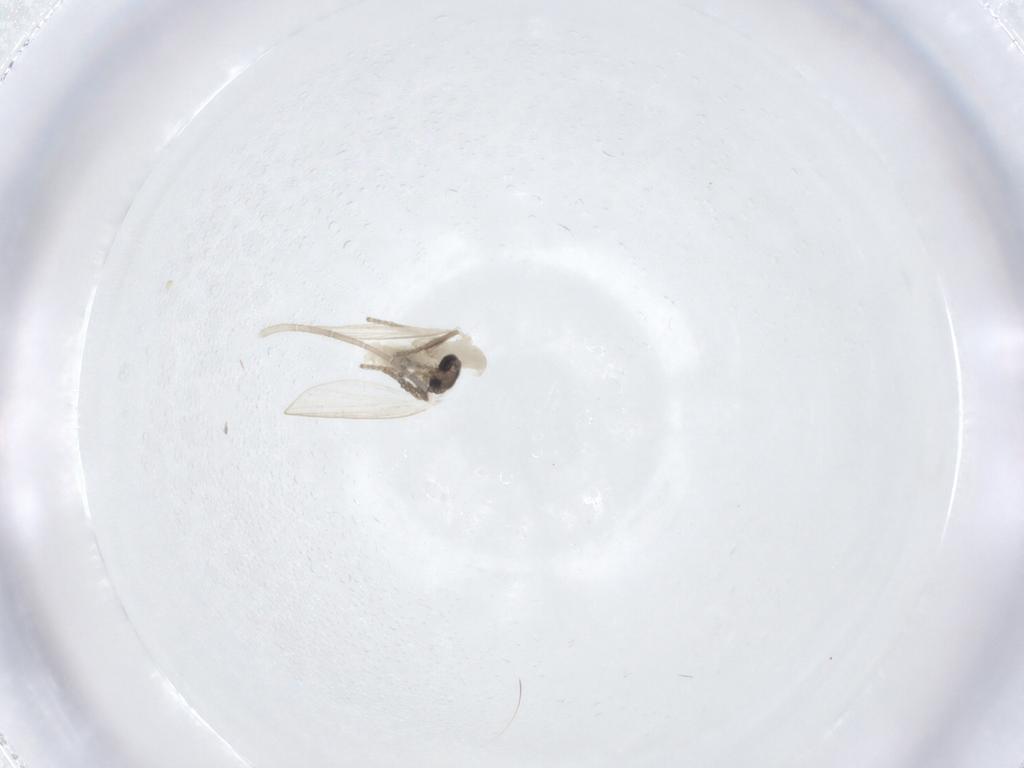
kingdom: Animalia
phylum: Arthropoda
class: Insecta
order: Diptera
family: Psychodidae
